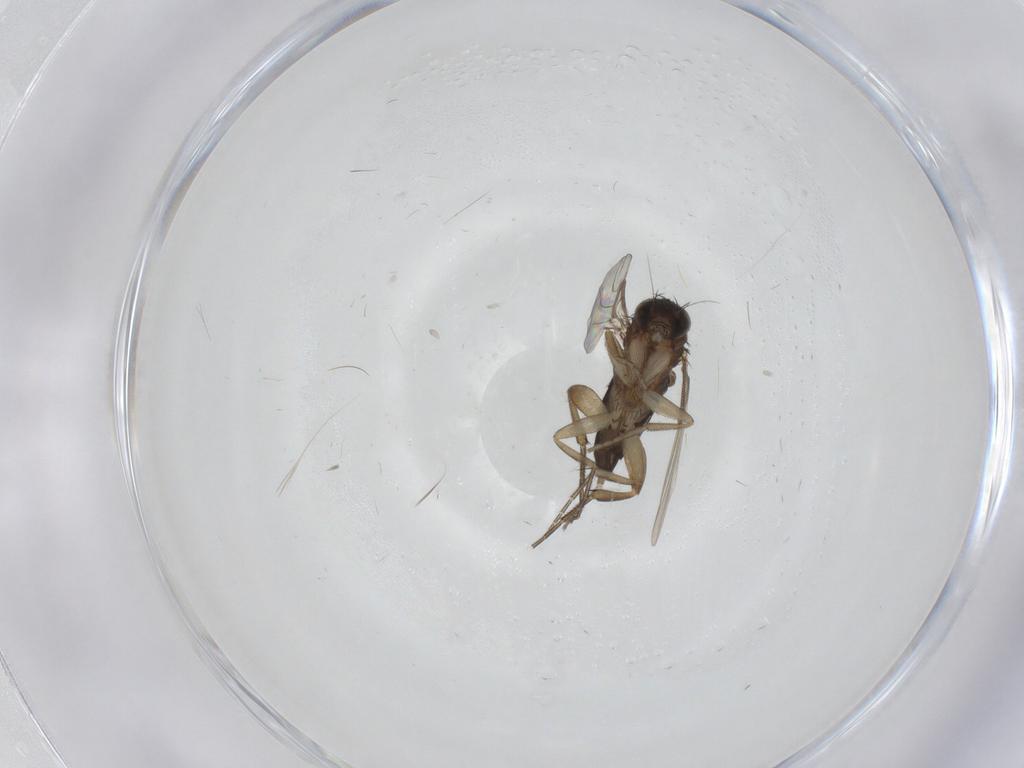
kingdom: Animalia
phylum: Arthropoda
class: Insecta
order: Diptera
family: Phoridae
